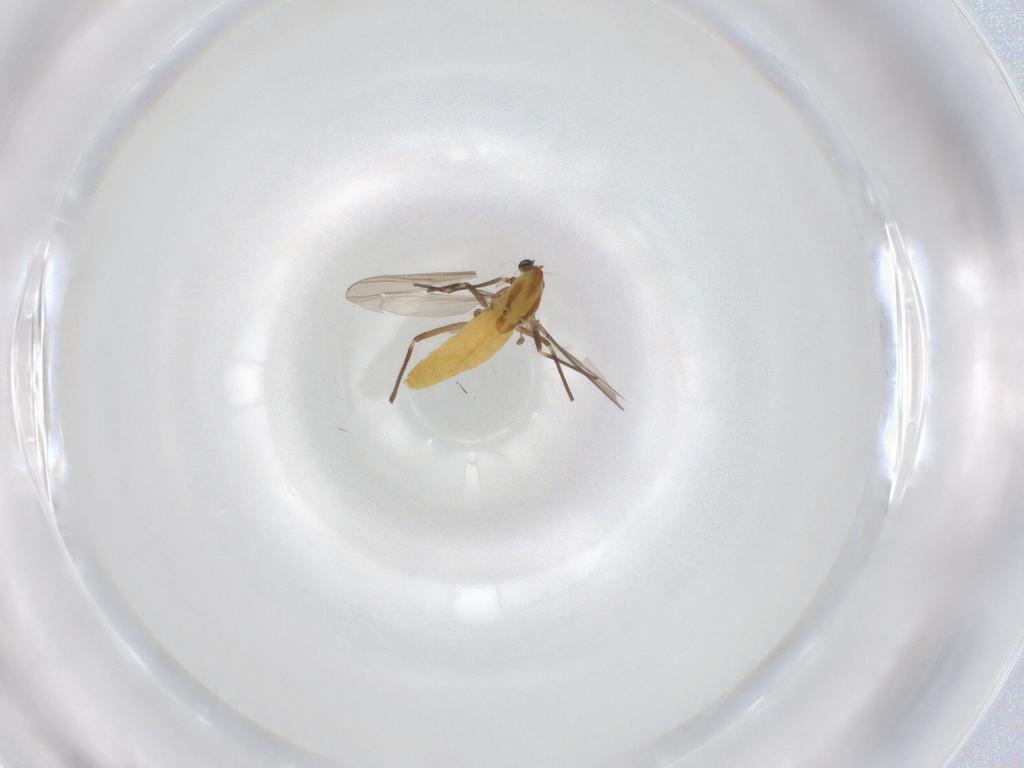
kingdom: Animalia
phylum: Arthropoda
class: Insecta
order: Diptera
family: Chironomidae
